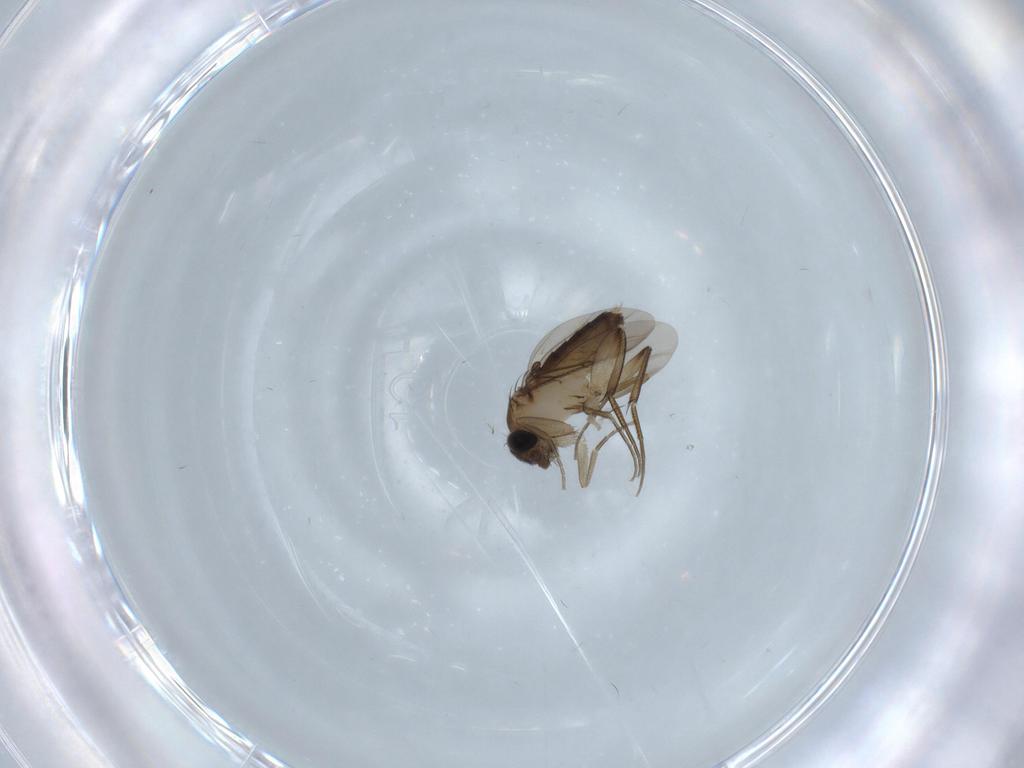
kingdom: Animalia
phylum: Arthropoda
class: Insecta
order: Diptera
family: Phoridae
